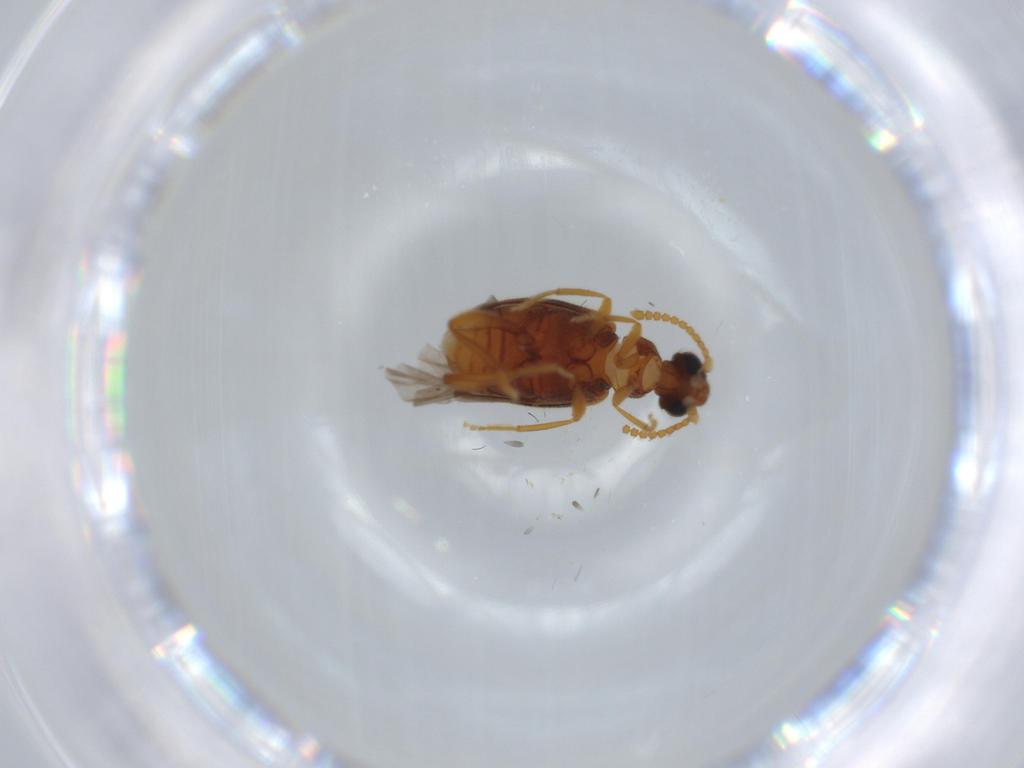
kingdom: Animalia
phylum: Arthropoda
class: Insecta
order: Coleoptera
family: Aderidae
